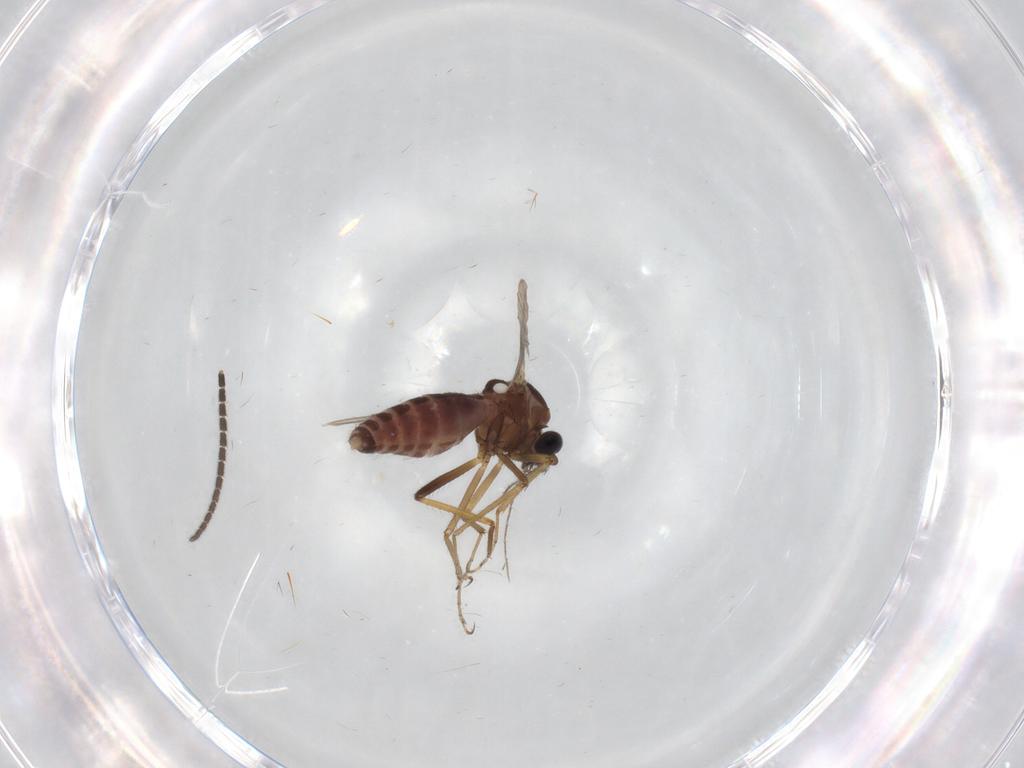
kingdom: Animalia
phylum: Arthropoda
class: Insecta
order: Diptera
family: Ceratopogonidae
